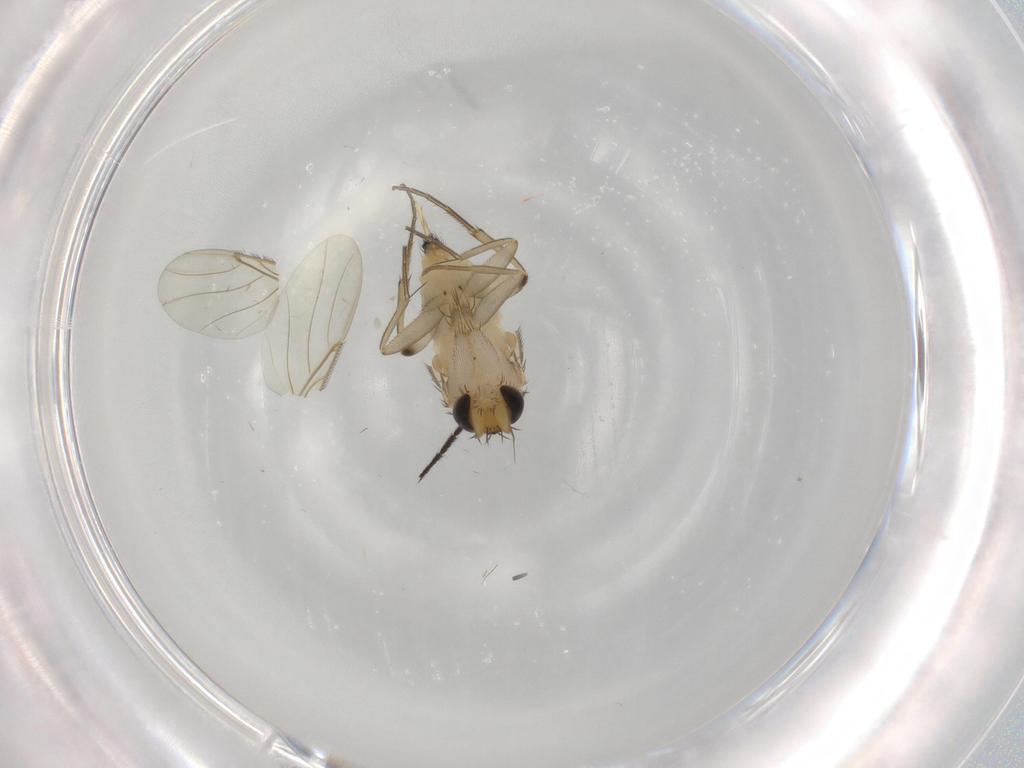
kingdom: Animalia
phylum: Arthropoda
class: Insecta
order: Diptera
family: Phoridae
